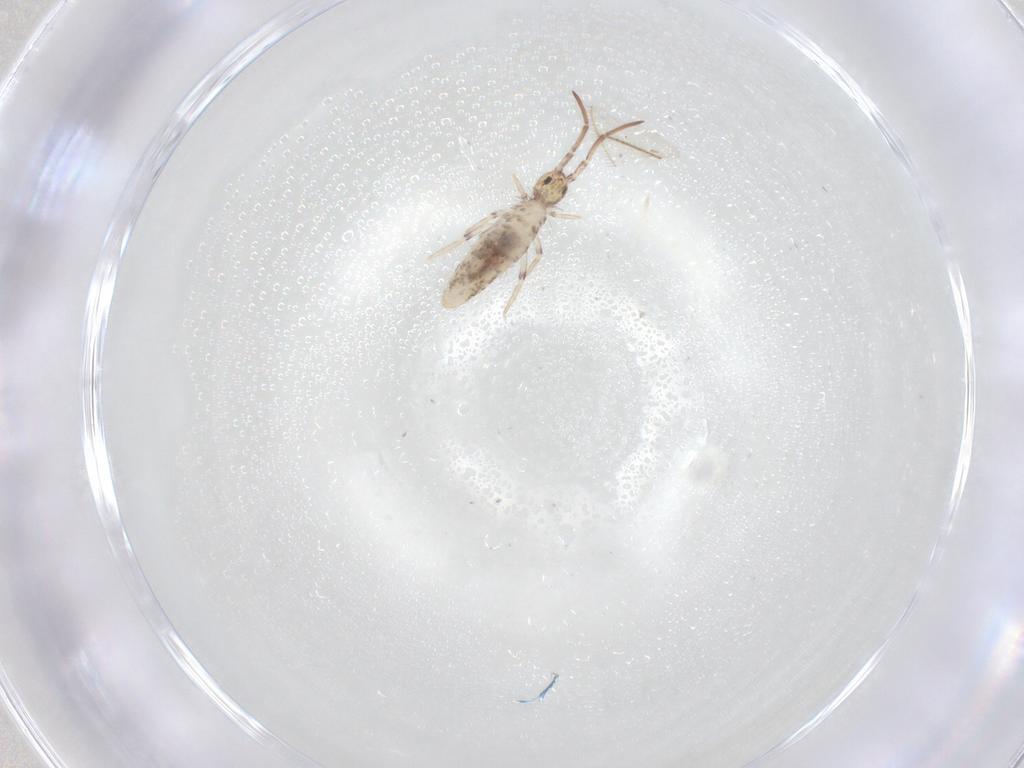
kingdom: Animalia
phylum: Arthropoda
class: Collembola
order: Entomobryomorpha
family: Entomobryidae
